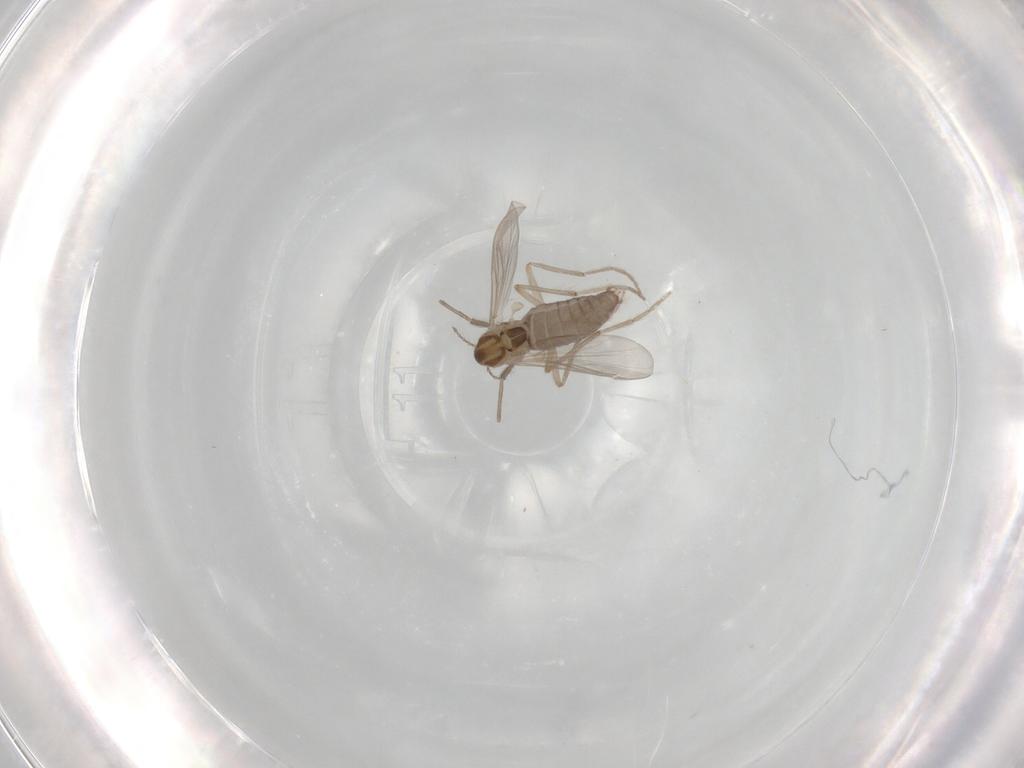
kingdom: Animalia
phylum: Arthropoda
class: Insecta
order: Diptera
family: Chironomidae
